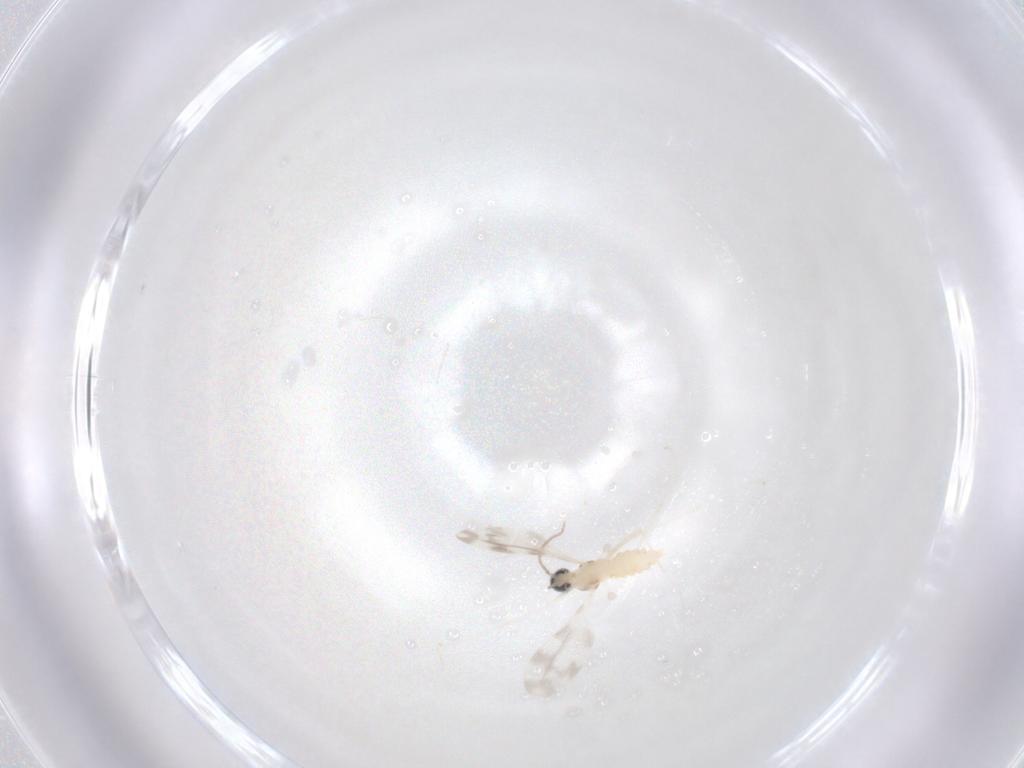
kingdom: Animalia
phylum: Arthropoda
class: Insecta
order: Diptera
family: Cecidomyiidae
